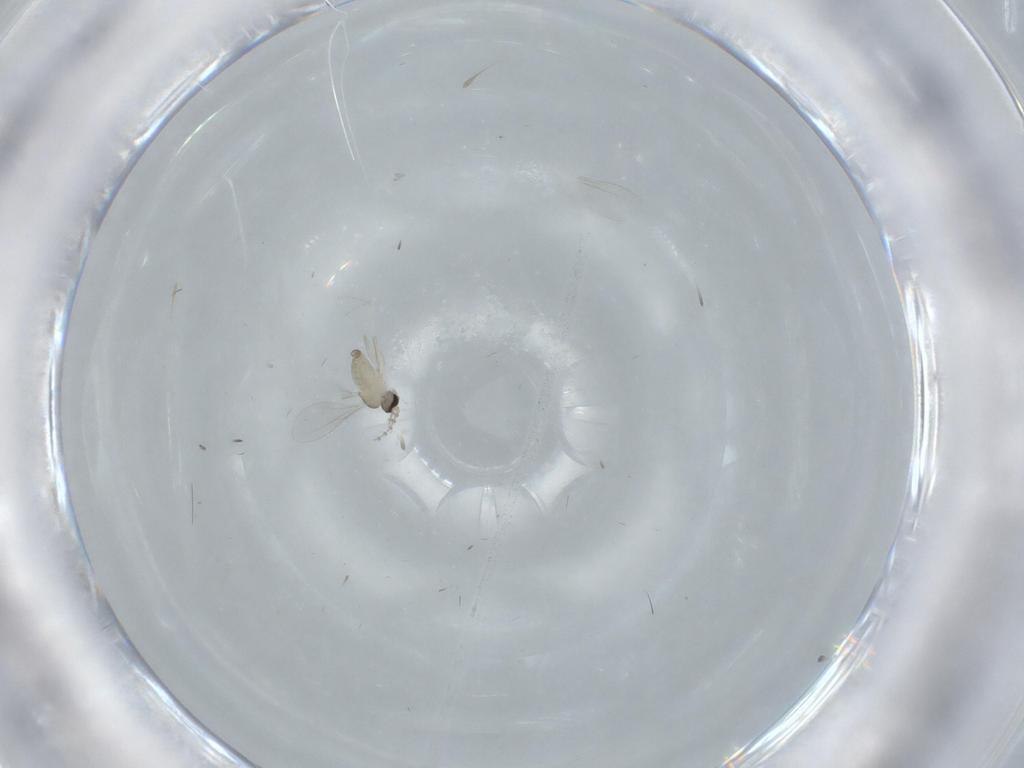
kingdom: Animalia
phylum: Arthropoda
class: Insecta
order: Diptera
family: Cecidomyiidae
